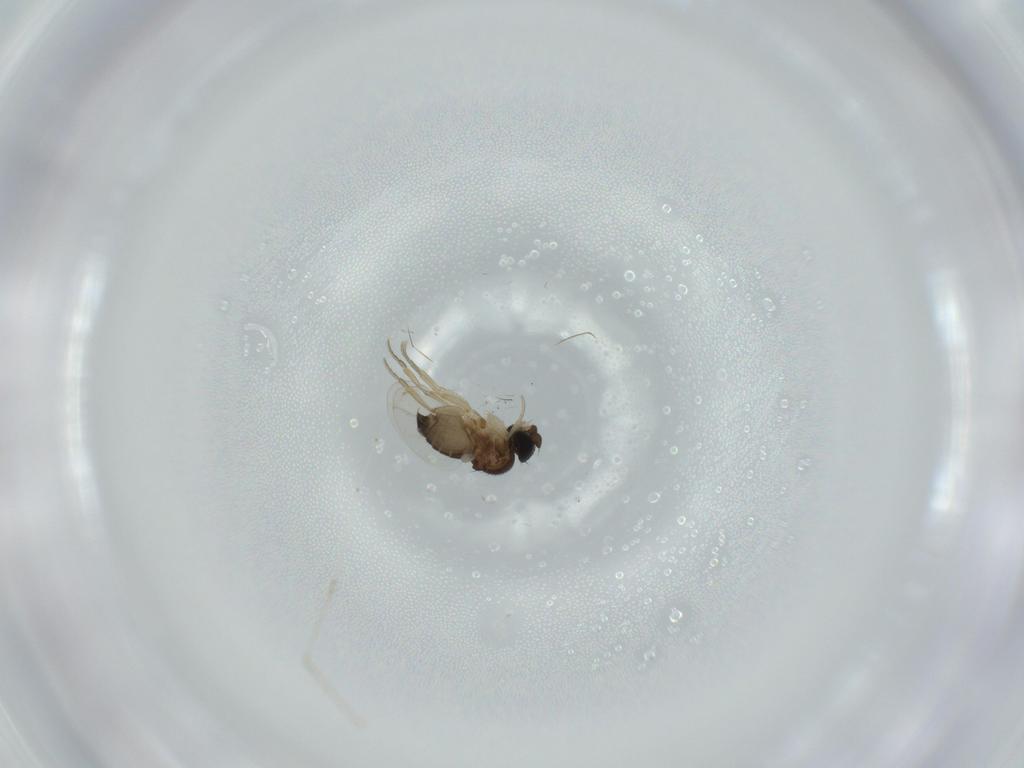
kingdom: Animalia
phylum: Arthropoda
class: Insecta
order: Diptera
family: Phoridae
